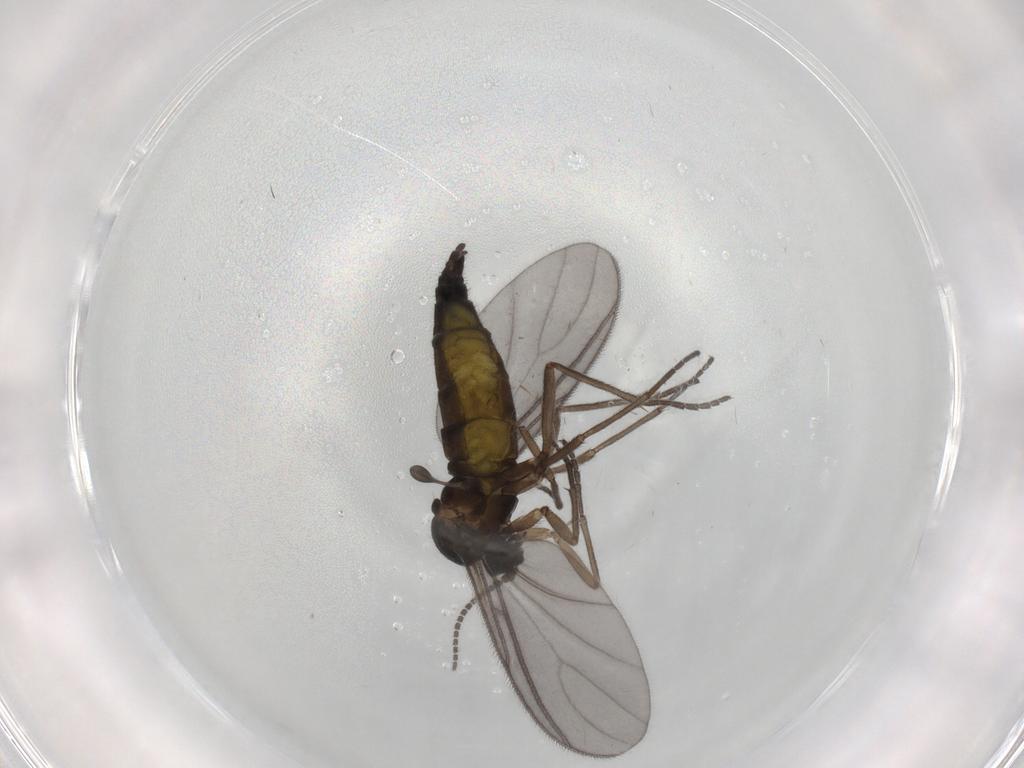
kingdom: Animalia
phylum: Arthropoda
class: Insecta
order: Diptera
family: Sciaridae
